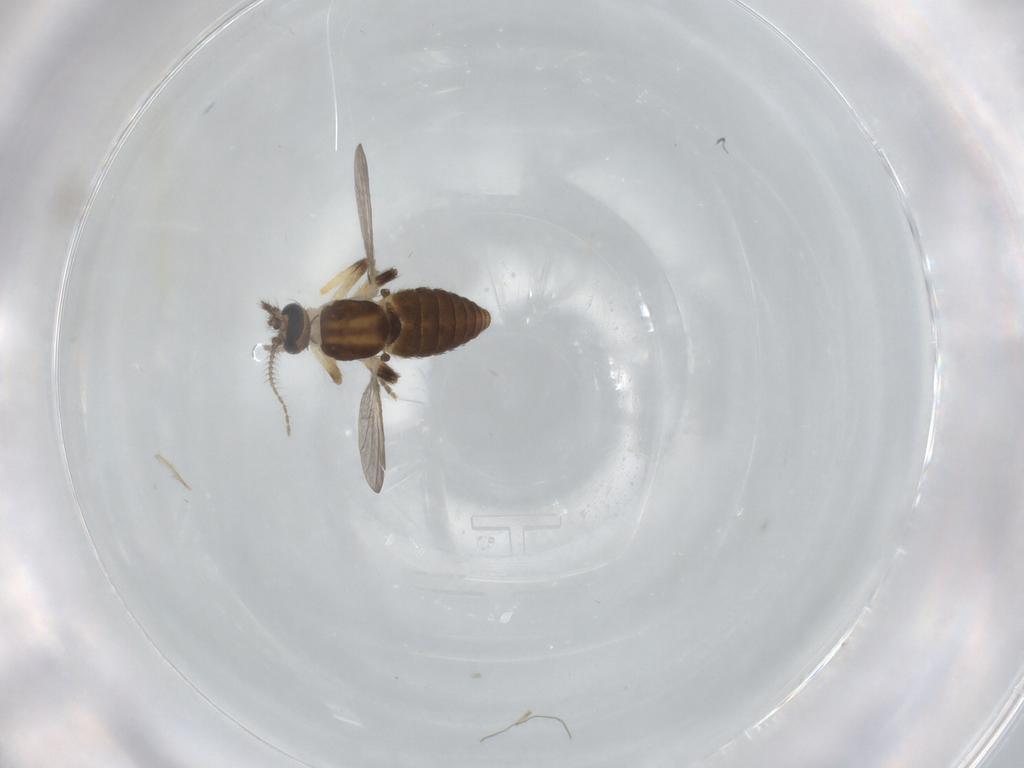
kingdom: Animalia
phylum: Arthropoda
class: Insecta
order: Diptera
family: Ceratopogonidae
